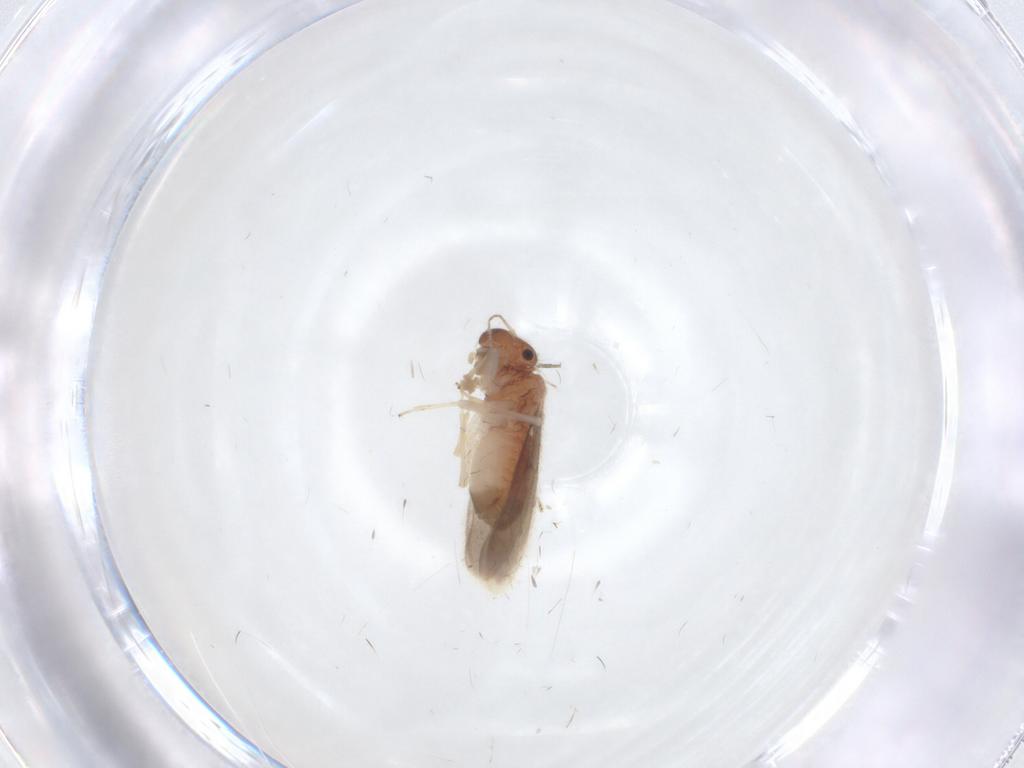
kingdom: Animalia
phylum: Arthropoda
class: Insecta
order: Psocodea
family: Archipsocidae
